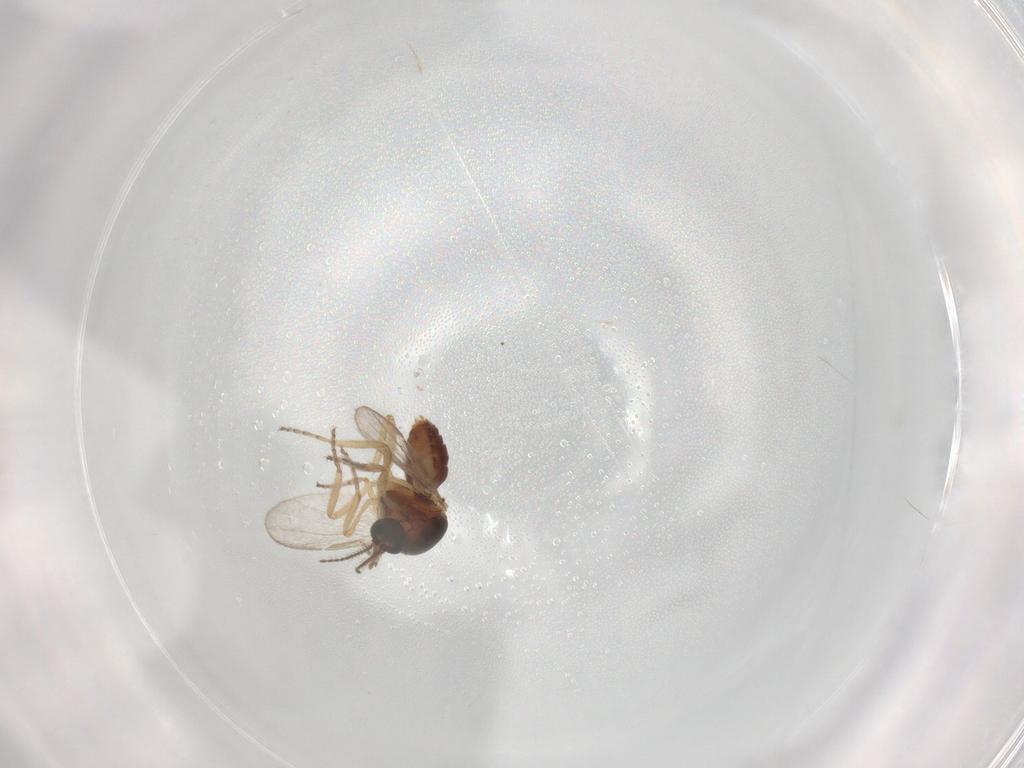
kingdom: Animalia
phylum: Arthropoda
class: Insecta
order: Diptera
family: Ceratopogonidae
